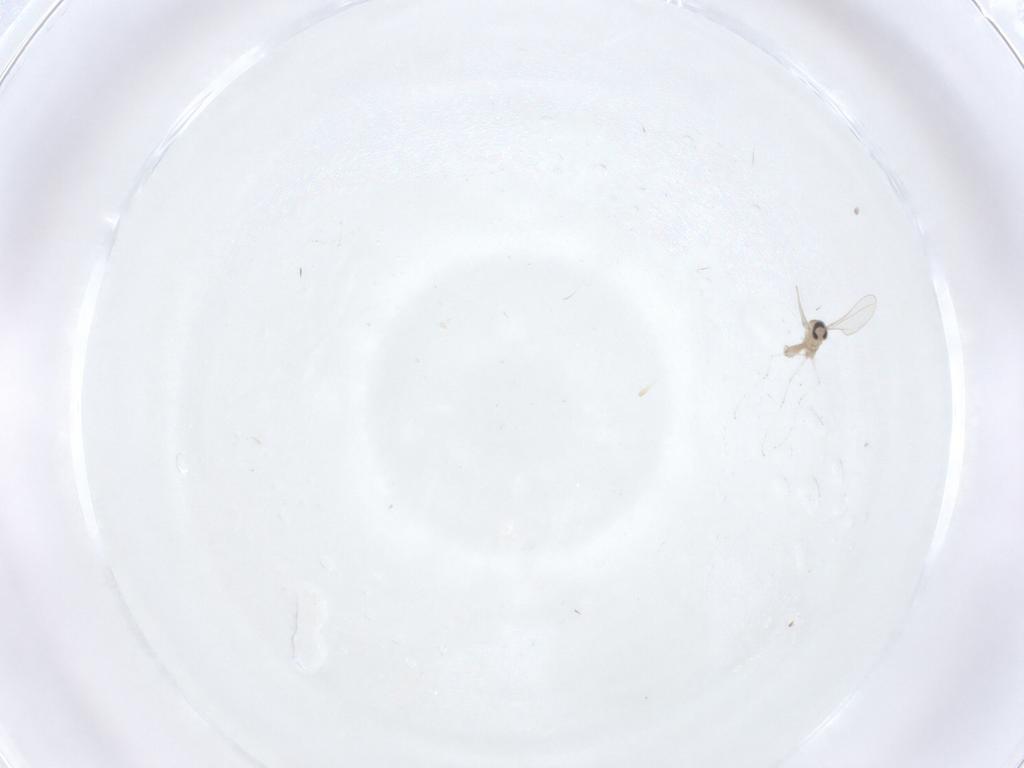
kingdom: Animalia
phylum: Arthropoda
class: Insecta
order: Diptera
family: Cecidomyiidae
